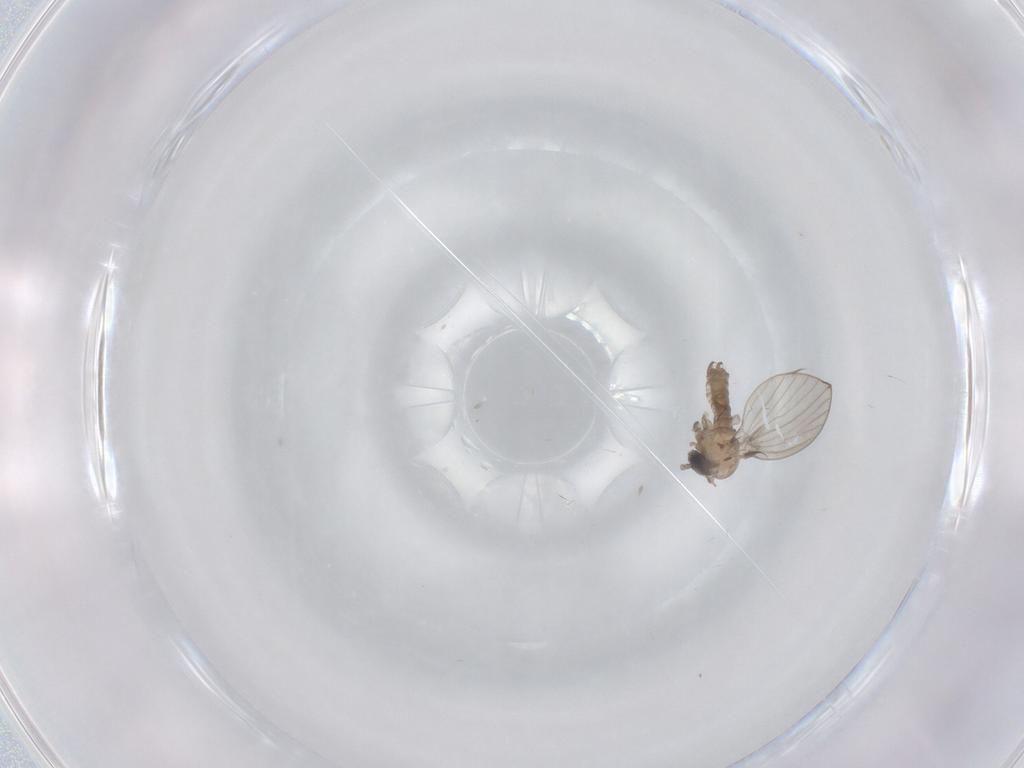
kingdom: Animalia
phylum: Arthropoda
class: Insecta
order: Diptera
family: Psychodidae
